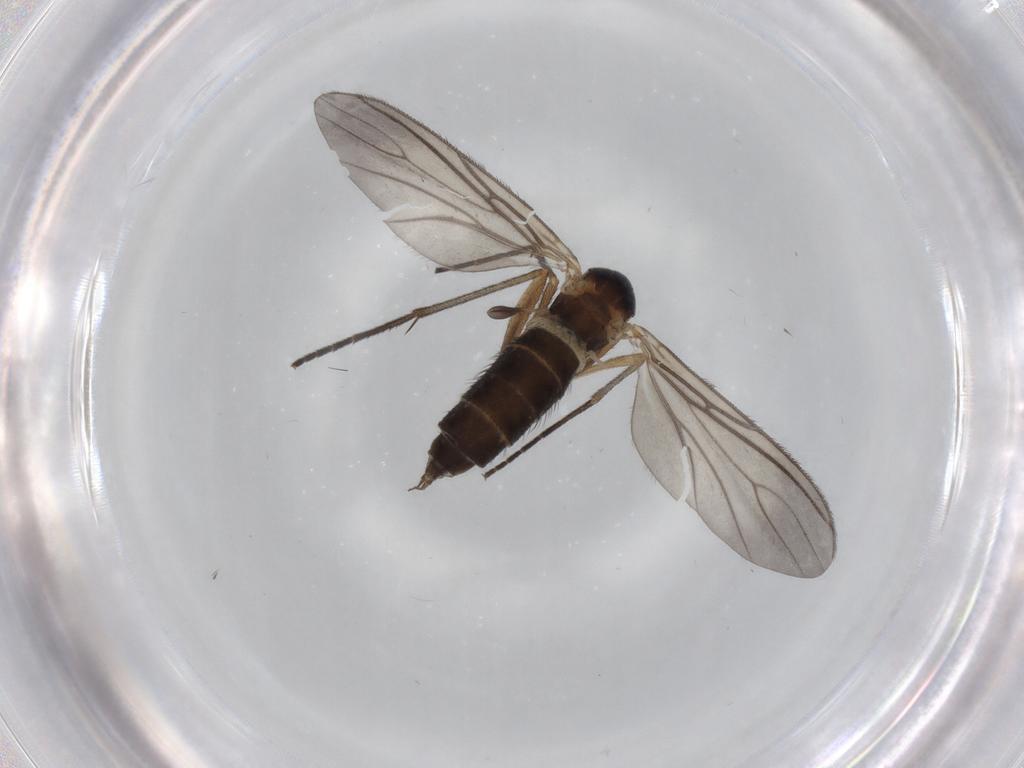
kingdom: Animalia
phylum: Arthropoda
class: Insecta
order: Diptera
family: Sciaridae
